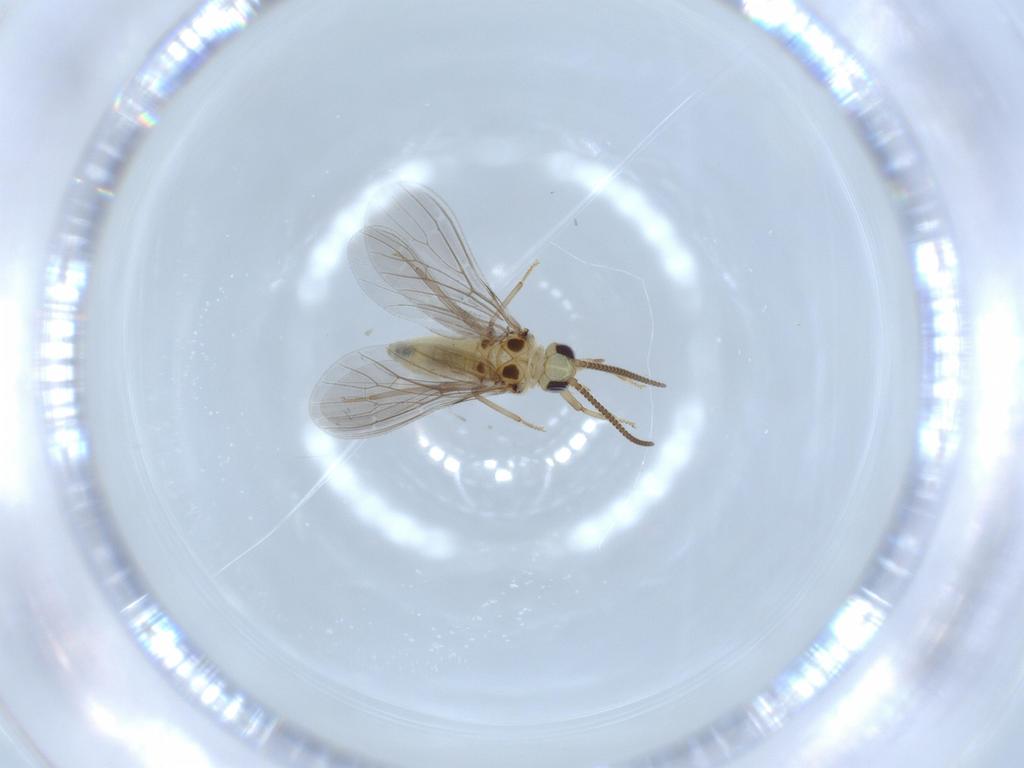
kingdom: Animalia
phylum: Arthropoda
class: Insecta
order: Neuroptera
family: Coniopterygidae
